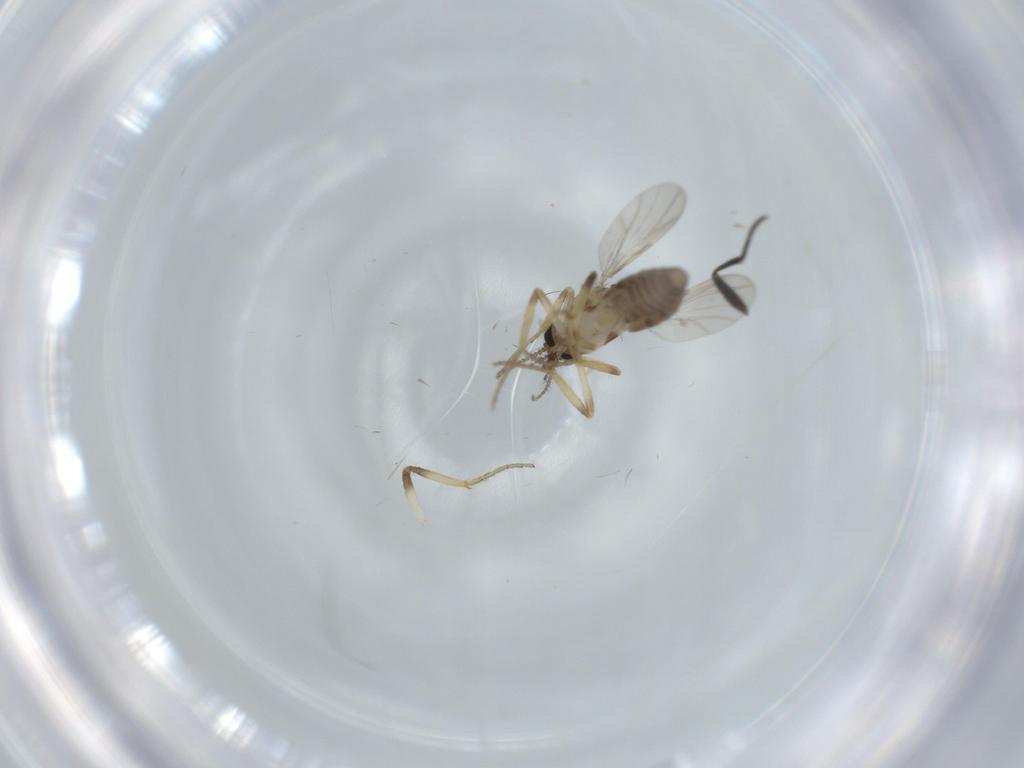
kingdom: Animalia
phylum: Arthropoda
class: Insecta
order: Diptera
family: Ceratopogonidae
